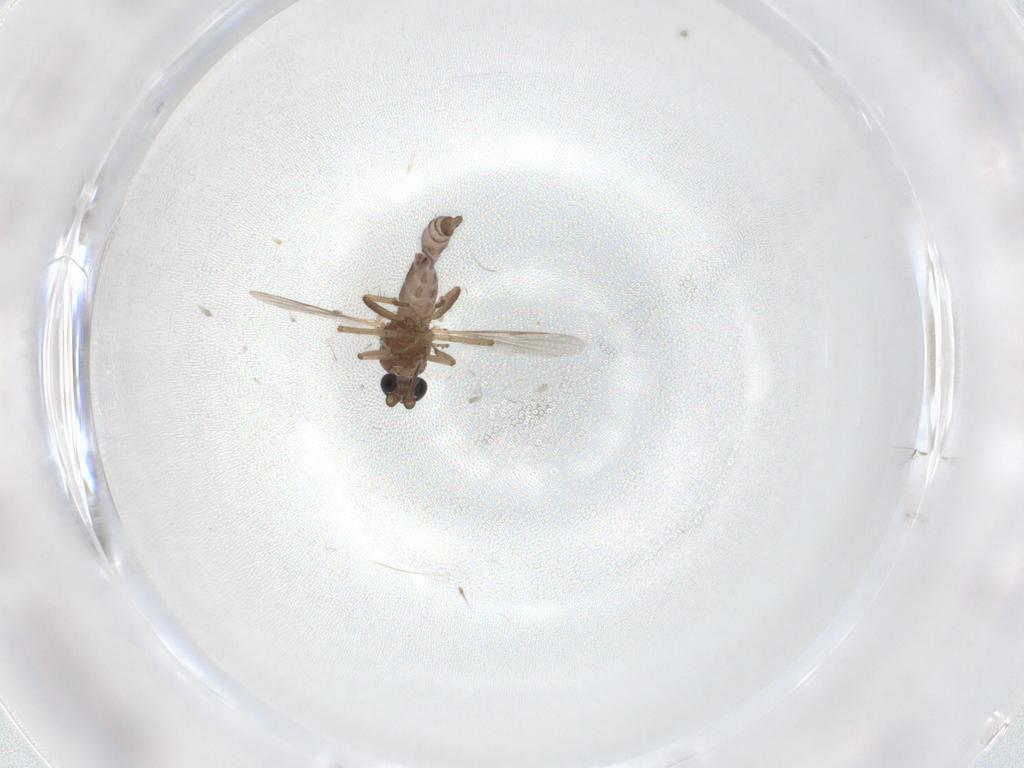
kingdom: Animalia
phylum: Arthropoda
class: Insecta
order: Diptera
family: Ceratopogonidae
